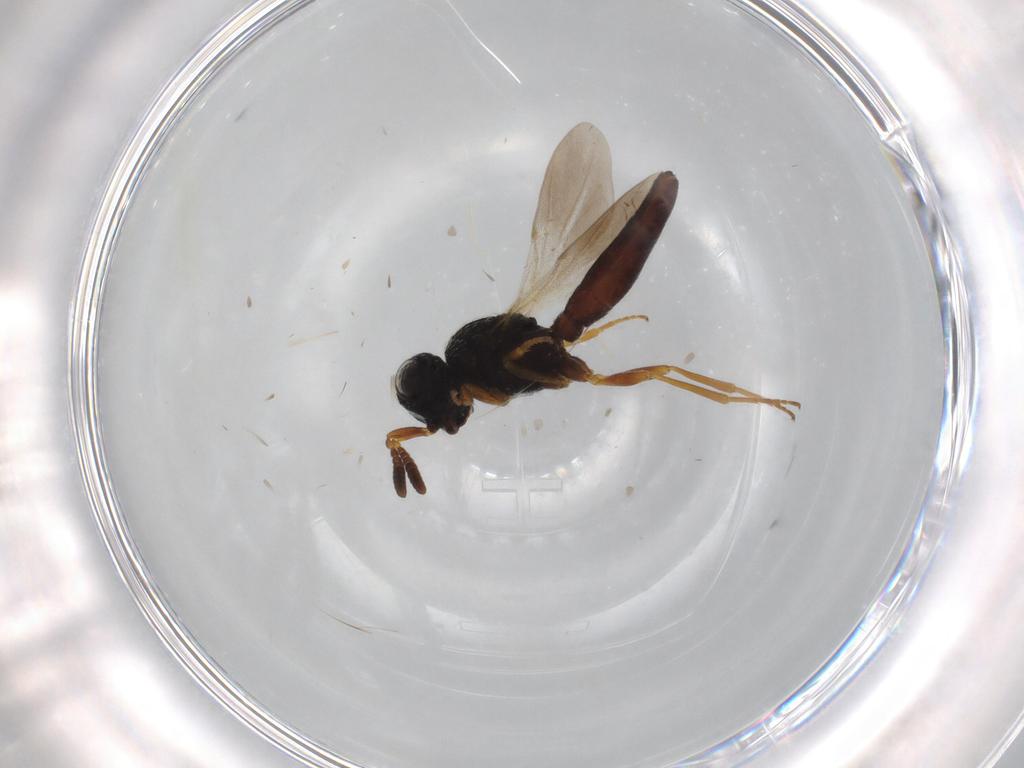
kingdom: Animalia
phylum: Arthropoda
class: Insecta
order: Hymenoptera
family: Scelionidae
